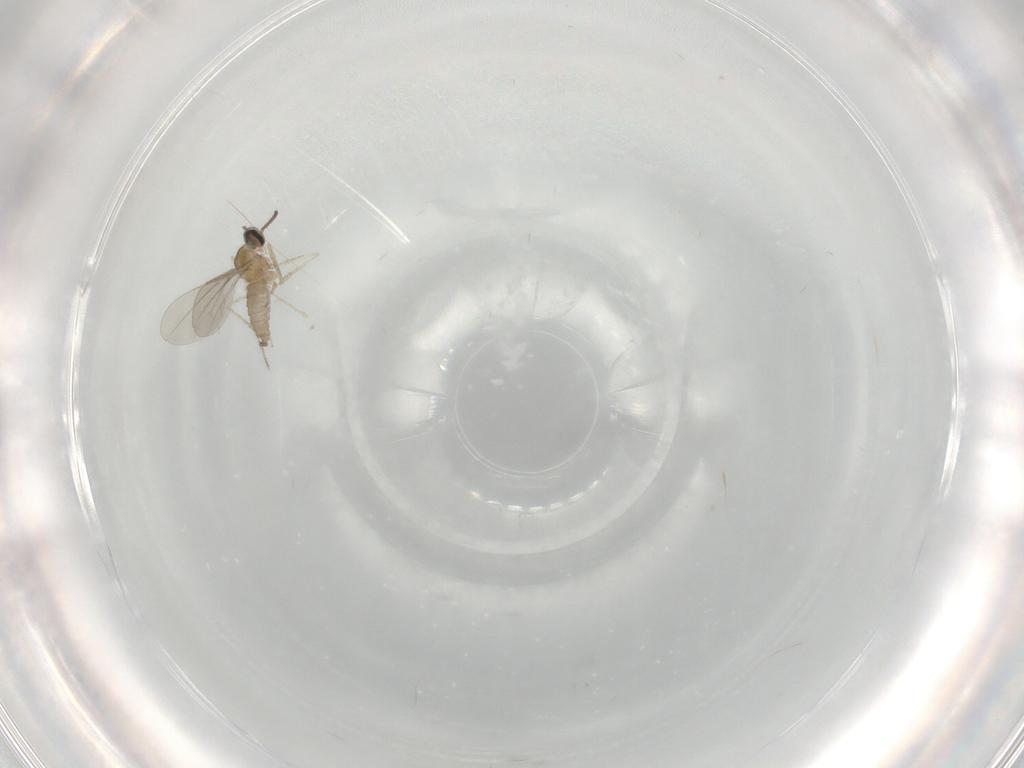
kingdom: Animalia
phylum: Arthropoda
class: Insecta
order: Diptera
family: Cecidomyiidae
